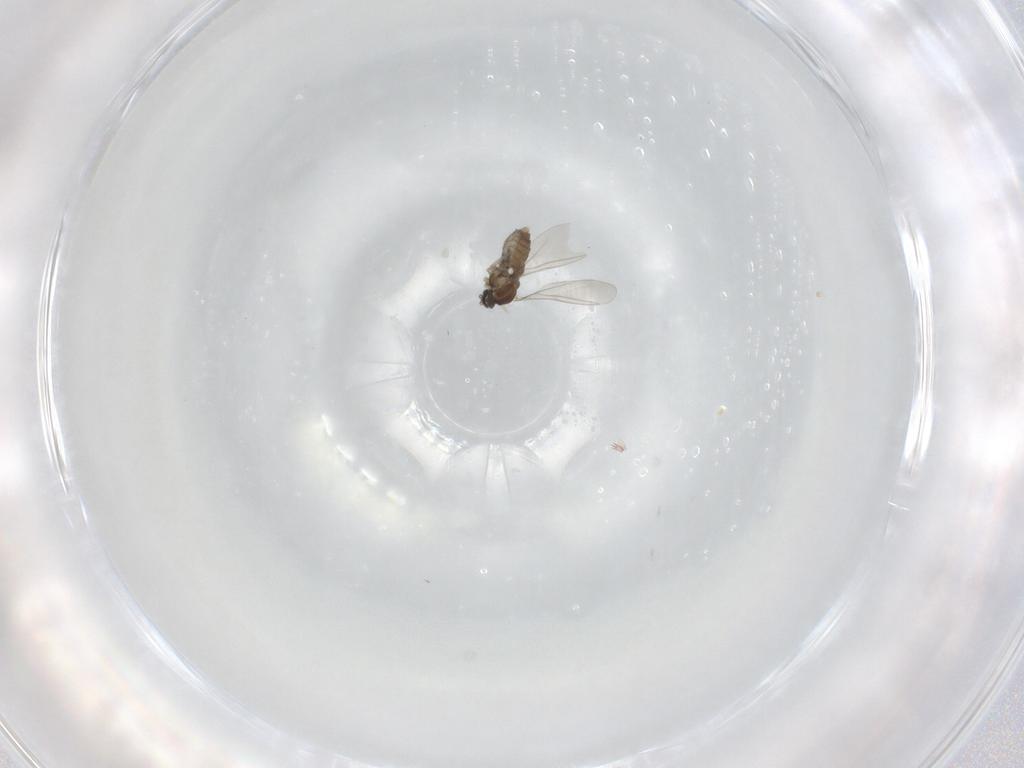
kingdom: Animalia
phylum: Arthropoda
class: Insecta
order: Diptera
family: Cecidomyiidae
